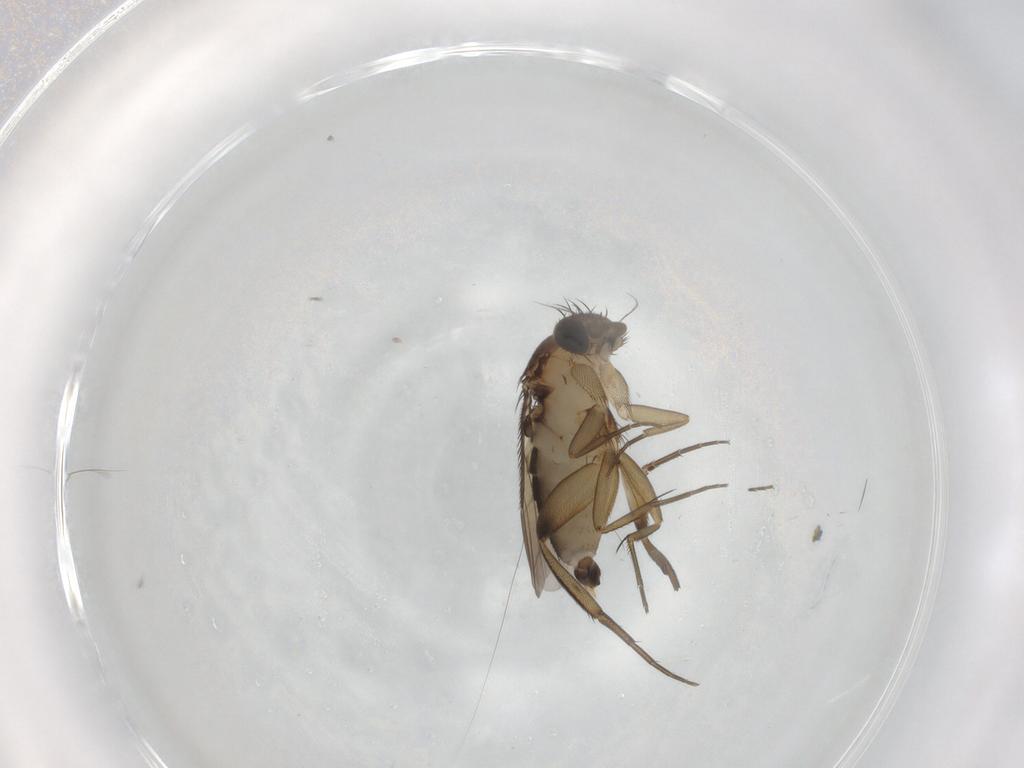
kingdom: Animalia
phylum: Arthropoda
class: Insecta
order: Diptera
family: Phoridae
